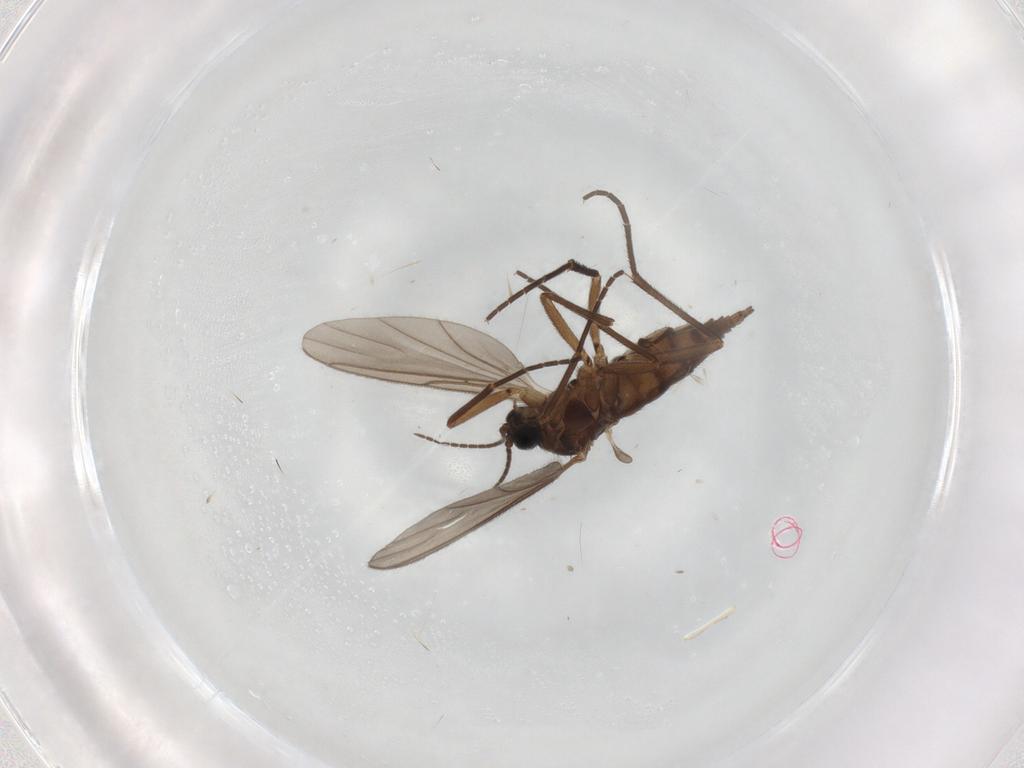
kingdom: Animalia
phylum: Arthropoda
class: Insecta
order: Diptera
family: Sciaridae
